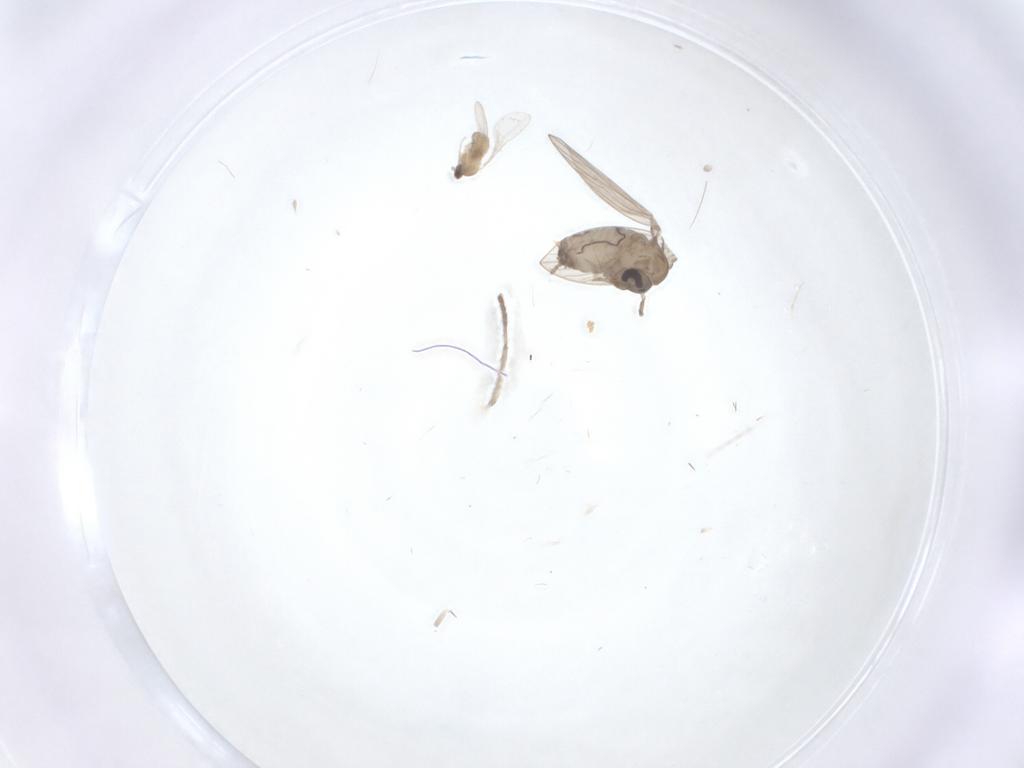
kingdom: Animalia
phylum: Arthropoda
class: Insecta
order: Diptera
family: Psychodidae
